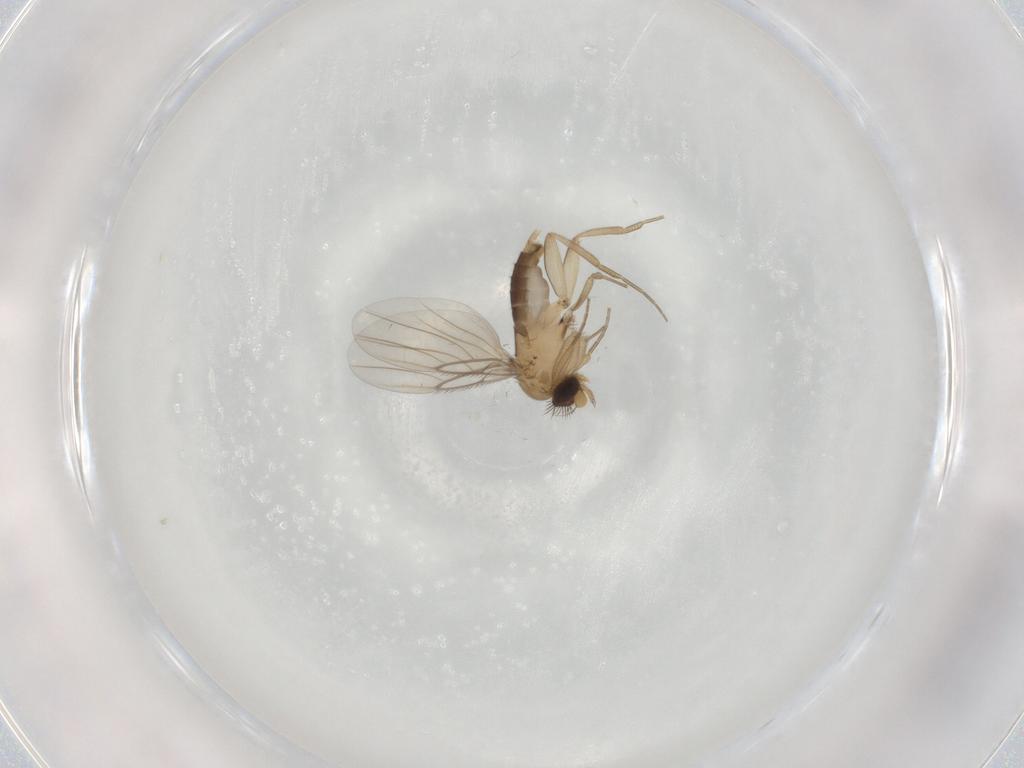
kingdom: Animalia
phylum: Arthropoda
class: Insecta
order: Diptera
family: Phoridae
